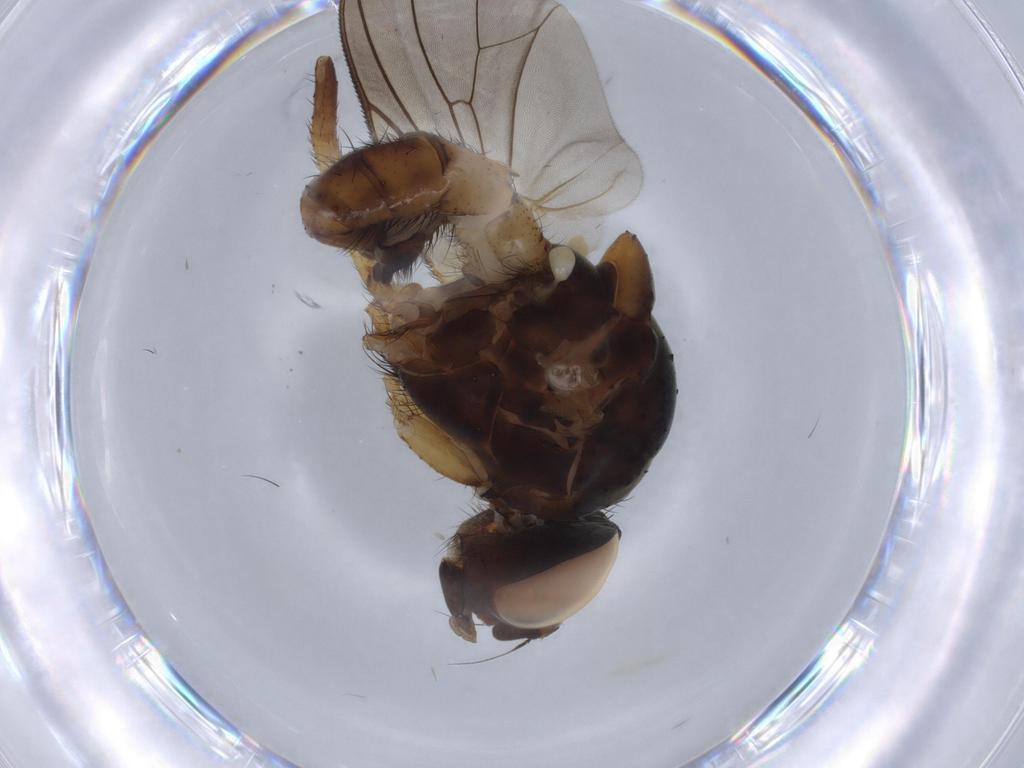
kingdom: Animalia
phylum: Arthropoda
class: Insecta
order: Diptera
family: Anthomyiidae
